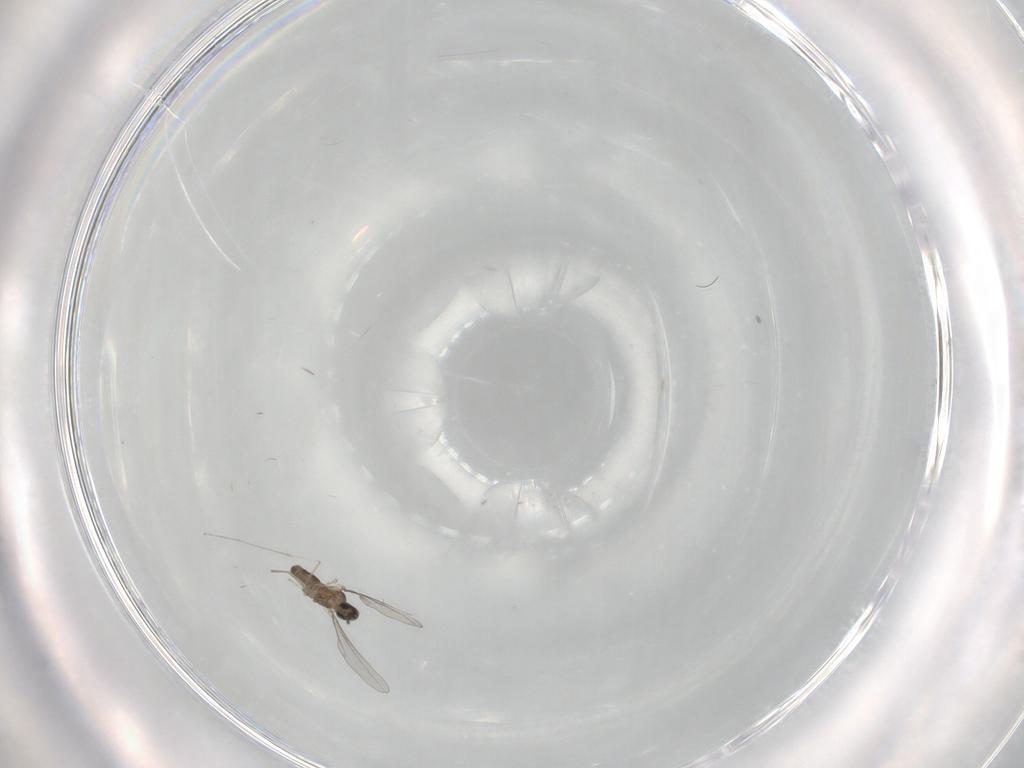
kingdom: Animalia
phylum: Arthropoda
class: Insecta
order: Diptera
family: Cecidomyiidae
